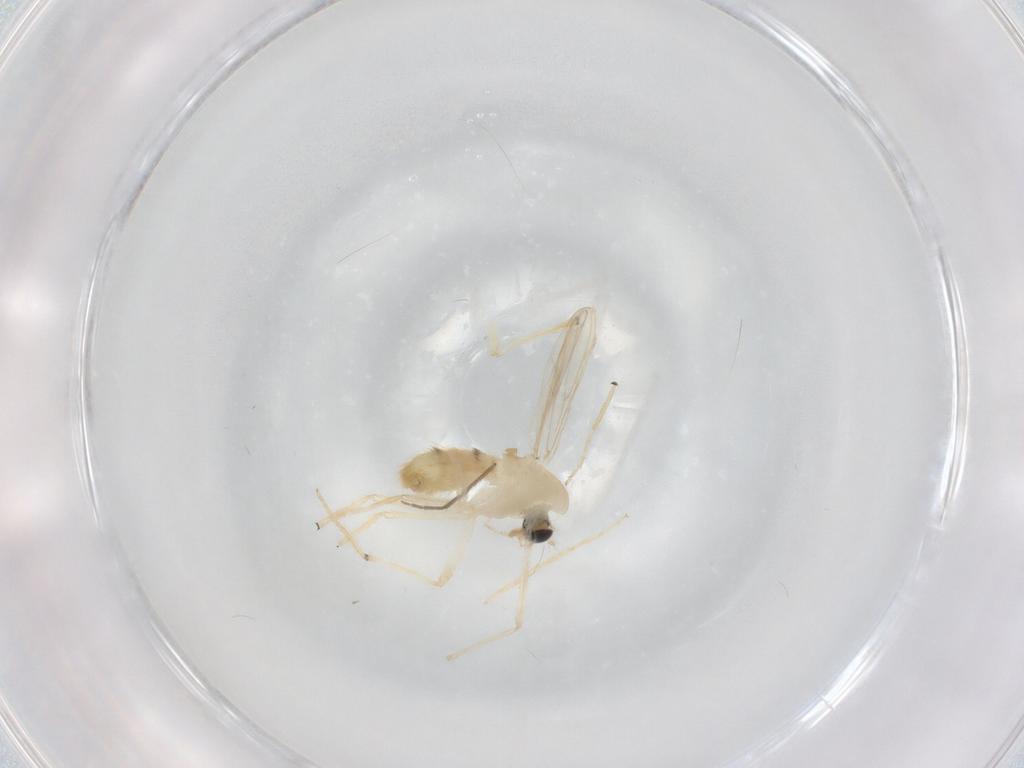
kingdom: Animalia
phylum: Arthropoda
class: Insecta
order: Diptera
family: Chironomidae
